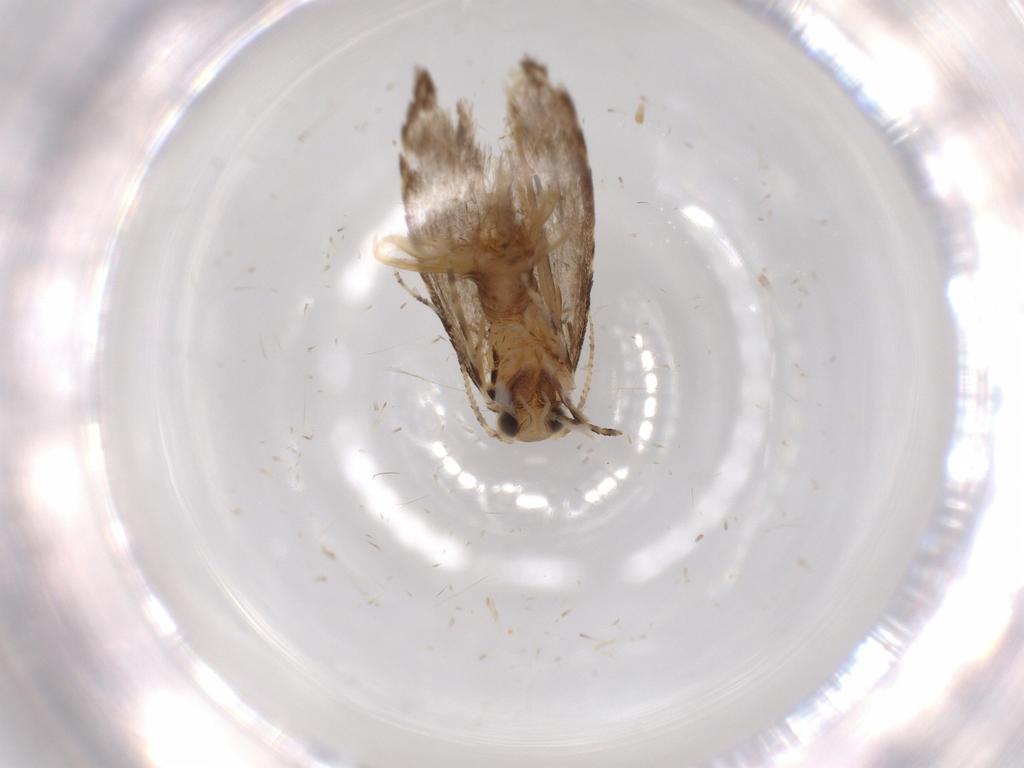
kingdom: Animalia
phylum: Arthropoda
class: Insecta
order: Lepidoptera
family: Tineidae
